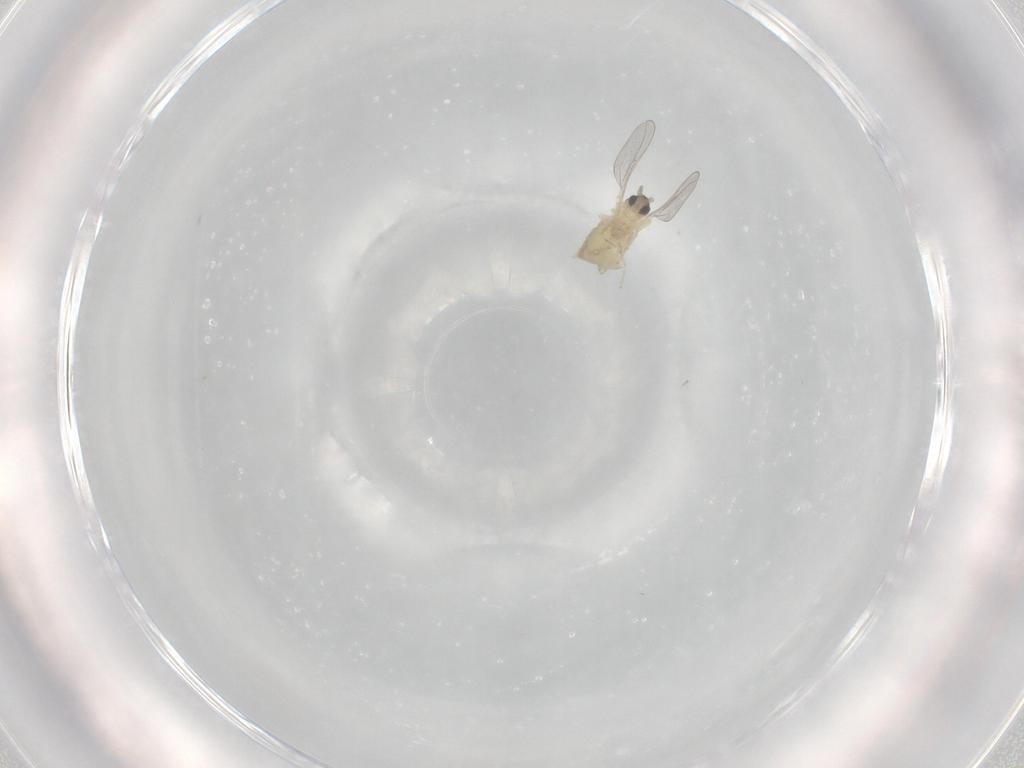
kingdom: Animalia
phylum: Arthropoda
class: Insecta
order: Diptera
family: Cecidomyiidae
